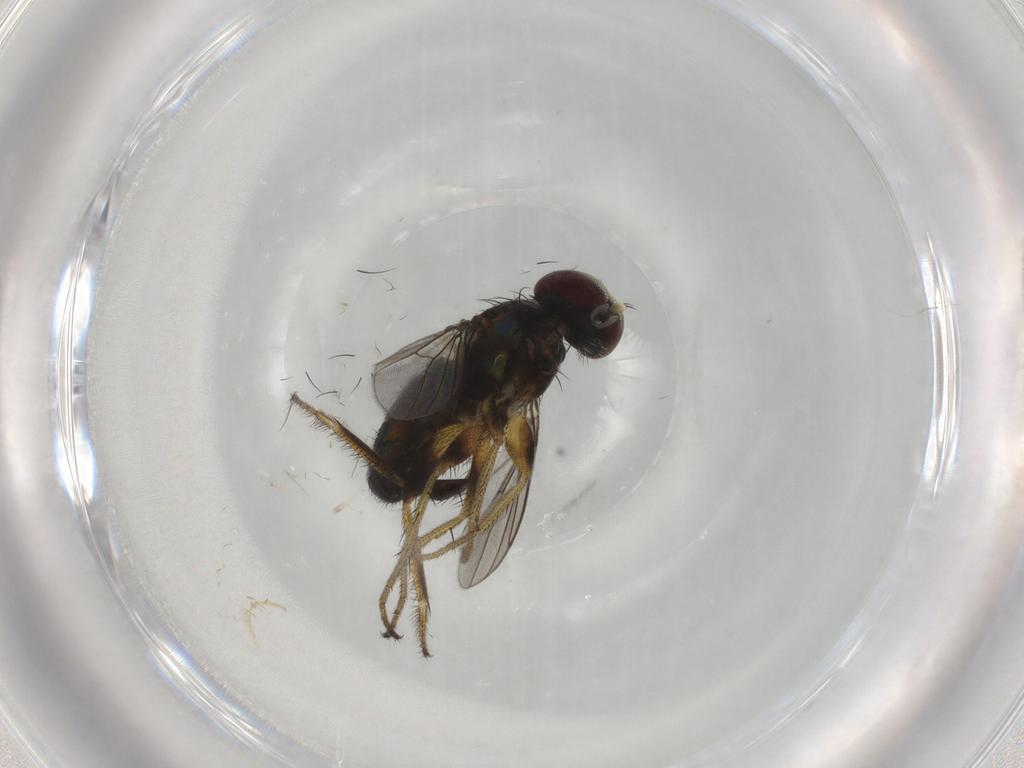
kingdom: Animalia
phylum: Arthropoda
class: Insecta
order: Diptera
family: Dolichopodidae
